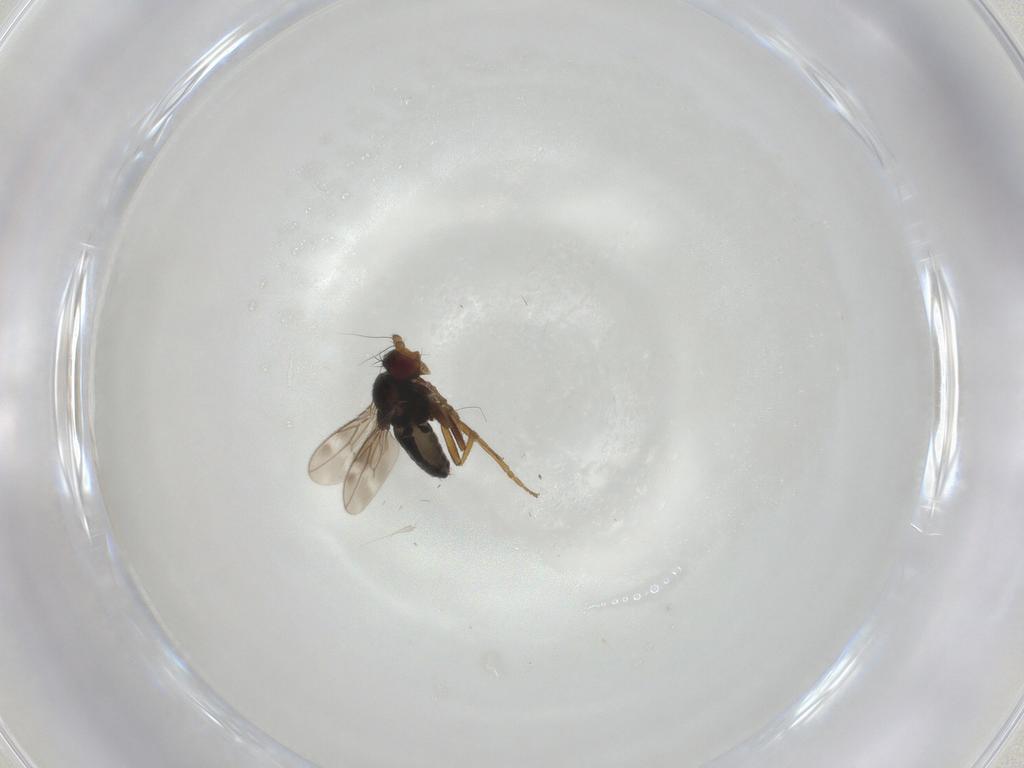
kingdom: Animalia
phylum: Arthropoda
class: Insecta
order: Diptera
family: Sphaeroceridae
